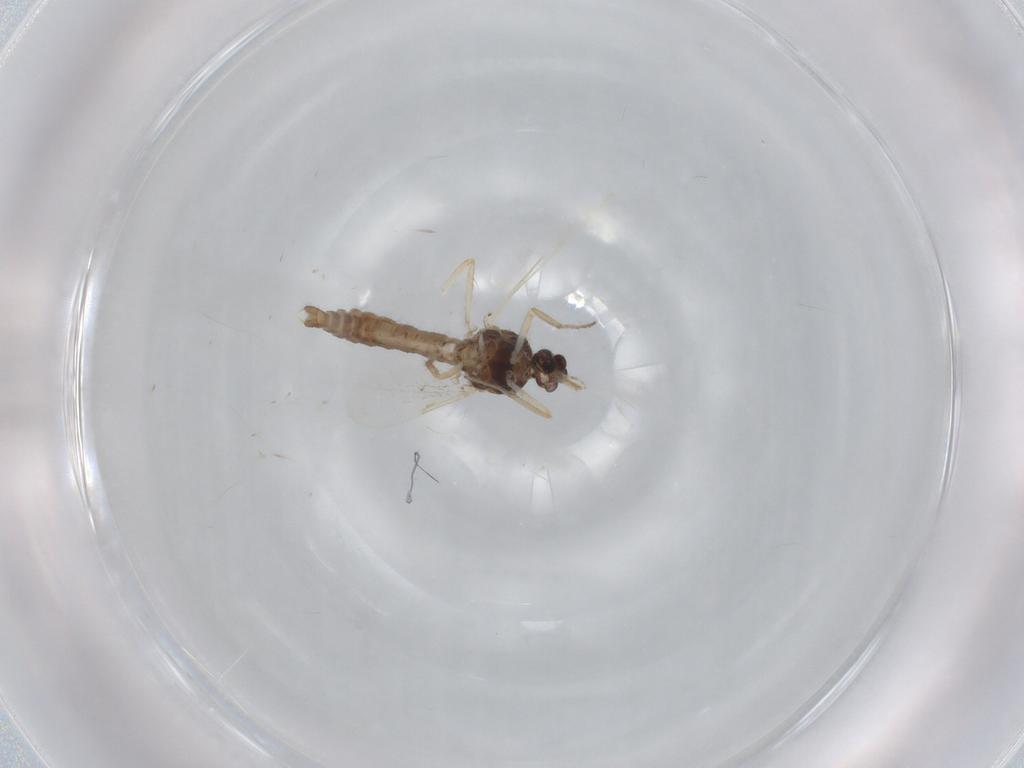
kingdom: Animalia
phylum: Arthropoda
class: Insecta
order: Diptera
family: Ceratopogonidae
